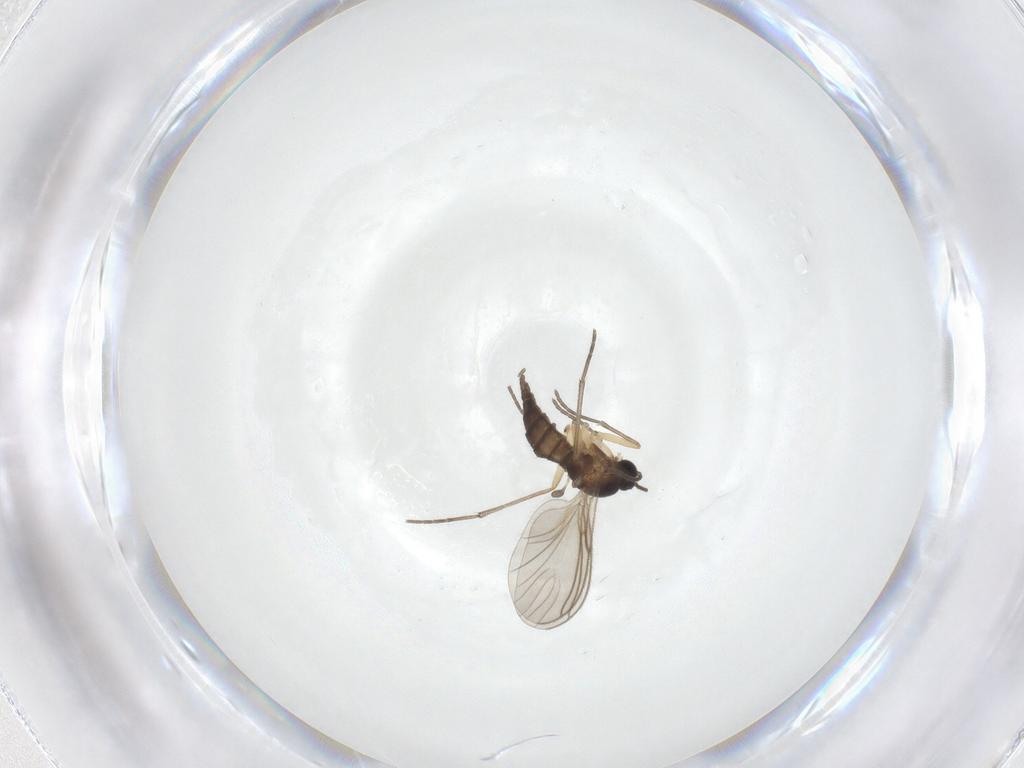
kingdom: Animalia
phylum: Arthropoda
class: Insecta
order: Diptera
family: Sciaridae
